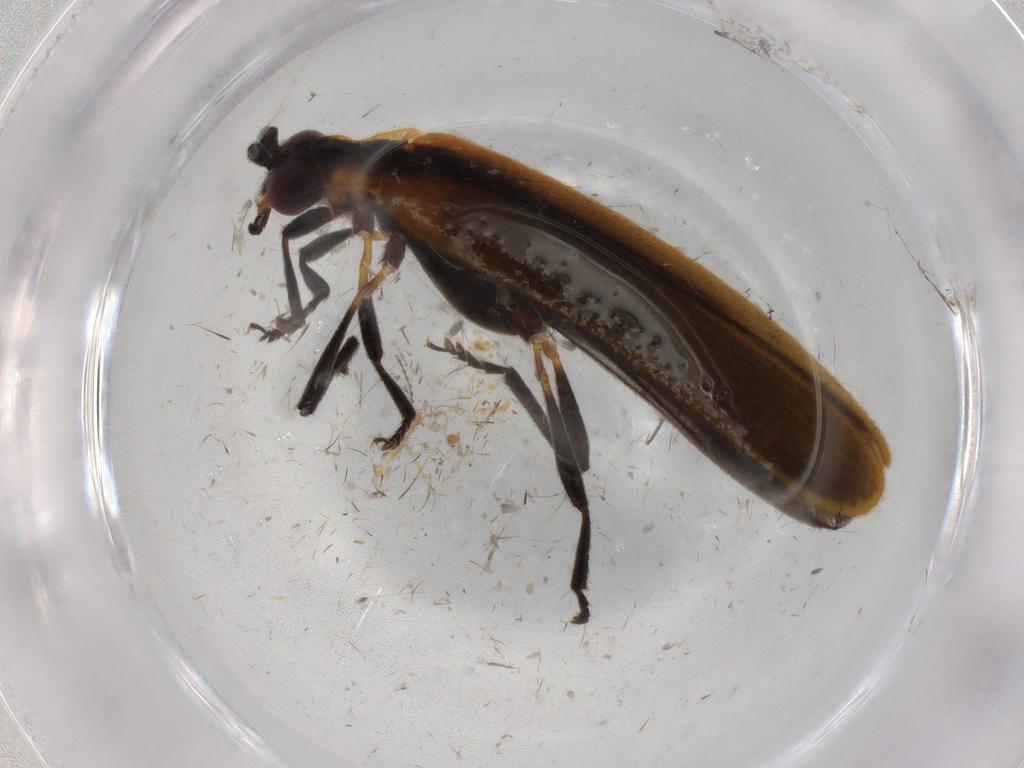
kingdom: Animalia
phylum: Arthropoda
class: Insecta
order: Coleoptera
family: Lycidae
